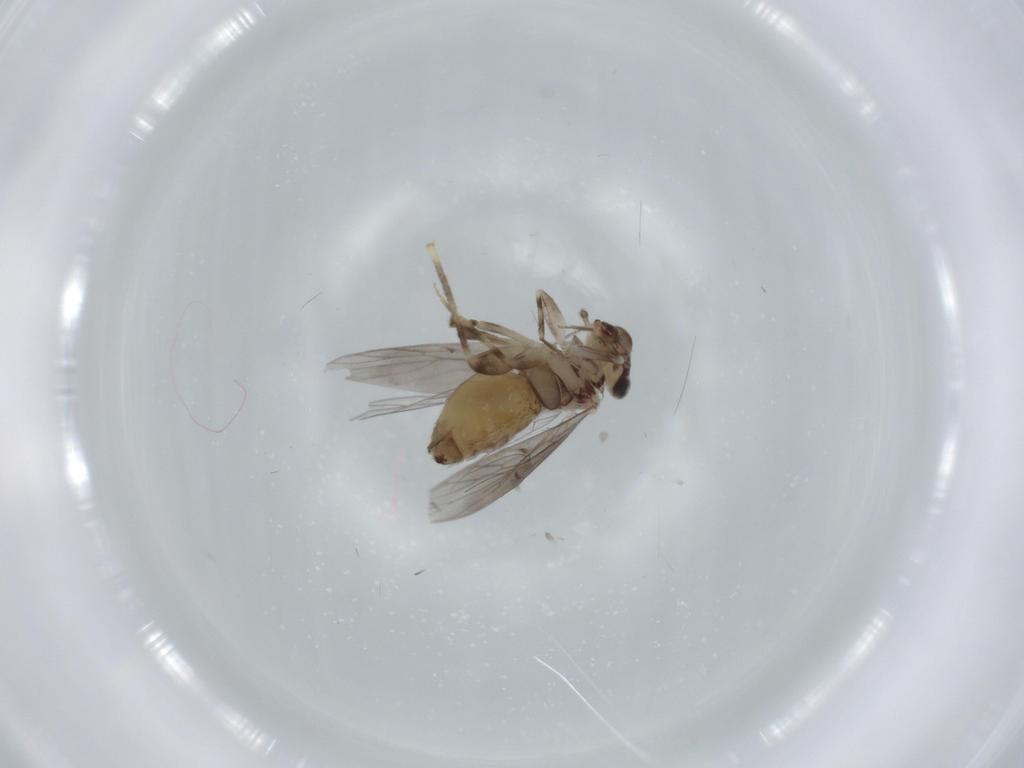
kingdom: Animalia
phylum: Arthropoda
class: Insecta
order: Psocodea
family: Lepidopsocidae
